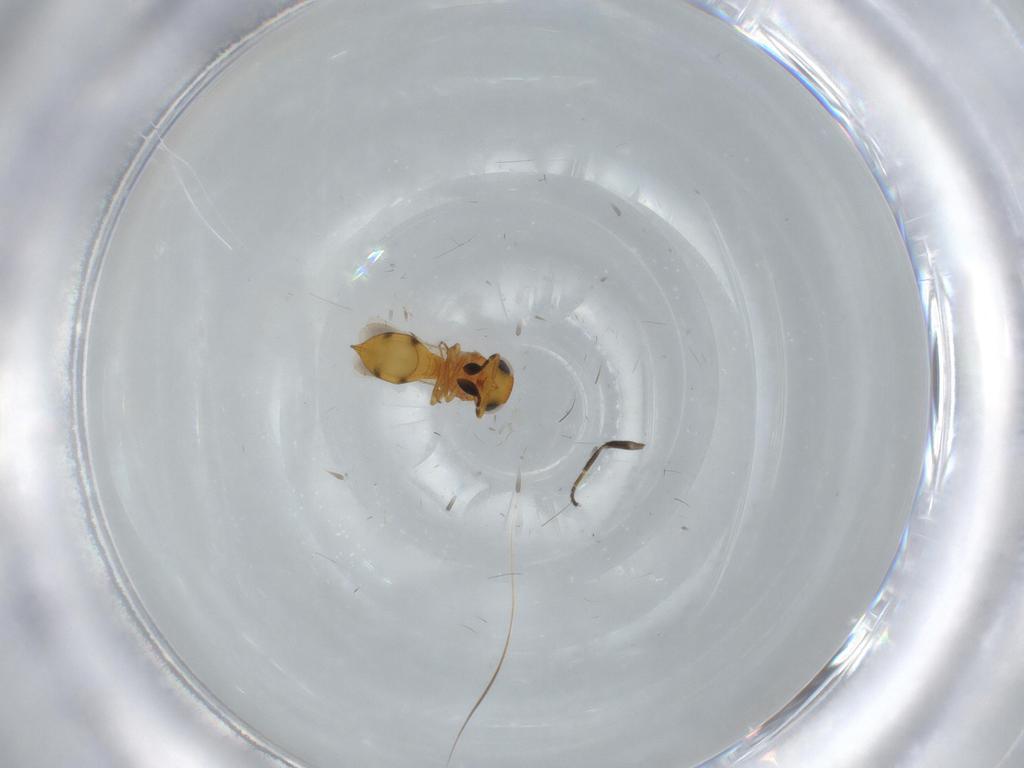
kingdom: Animalia
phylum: Arthropoda
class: Insecta
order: Hymenoptera
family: Scelionidae
